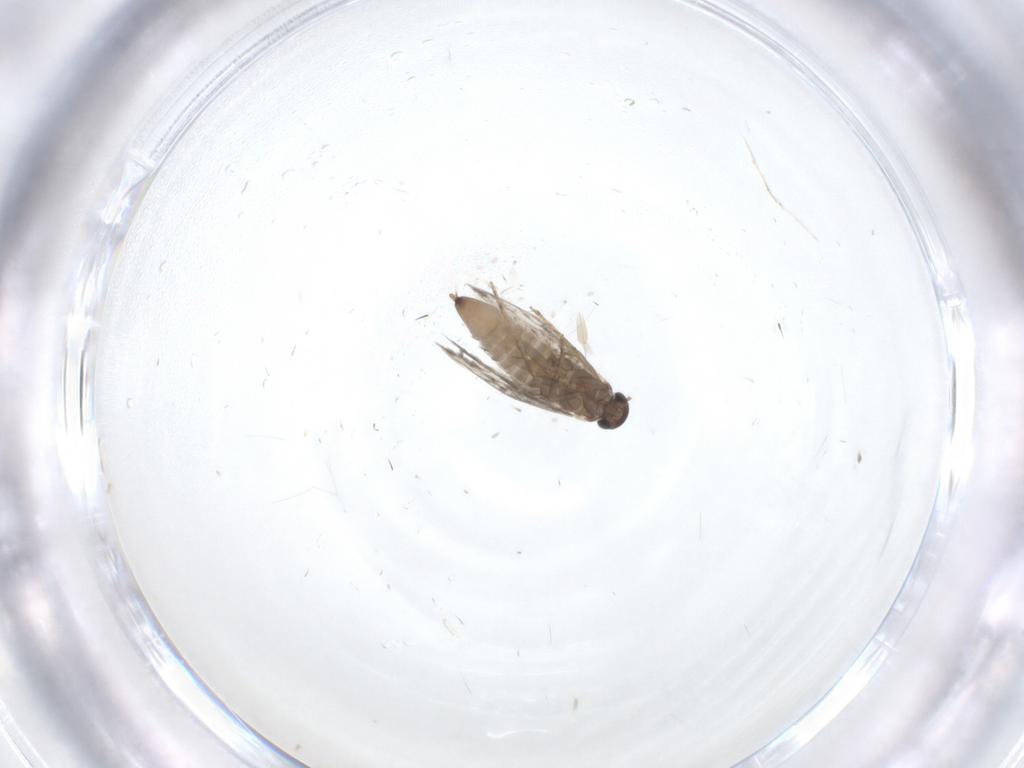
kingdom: Animalia
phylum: Arthropoda
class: Insecta
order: Lepidoptera
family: Heliozelidae
